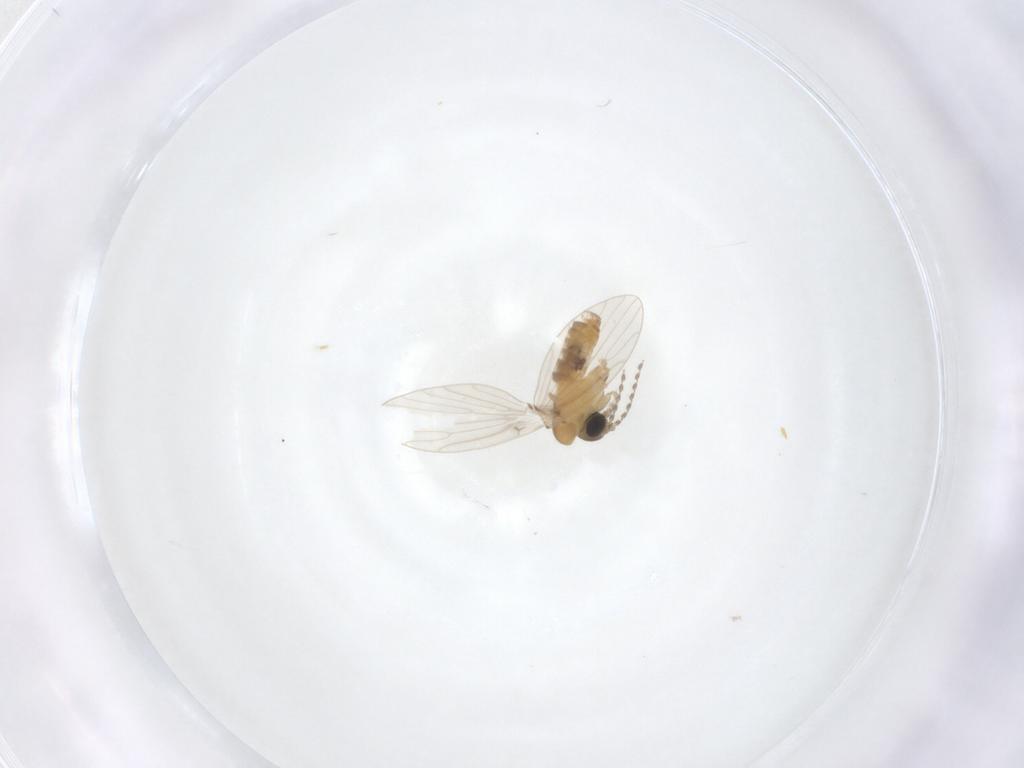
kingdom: Animalia
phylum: Arthropoda
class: Insecta
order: Diptera
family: Psychodidae
